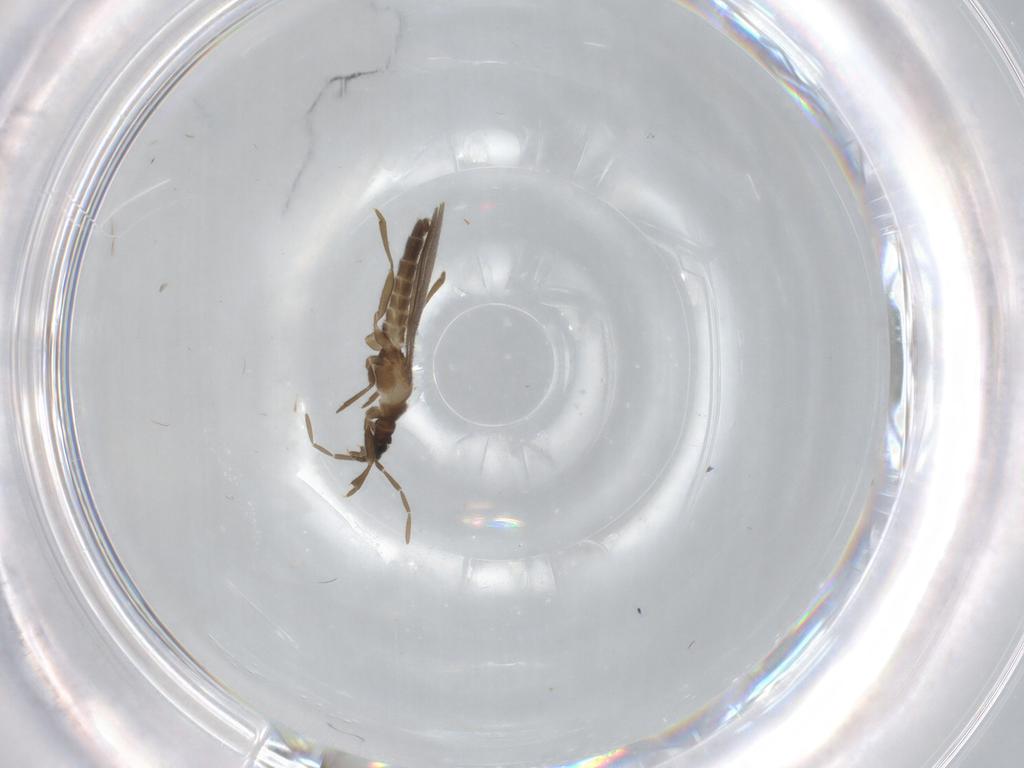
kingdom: Animalia
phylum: Arthropoda
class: Insecta
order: Hemiptera
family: Enicocephalidae
